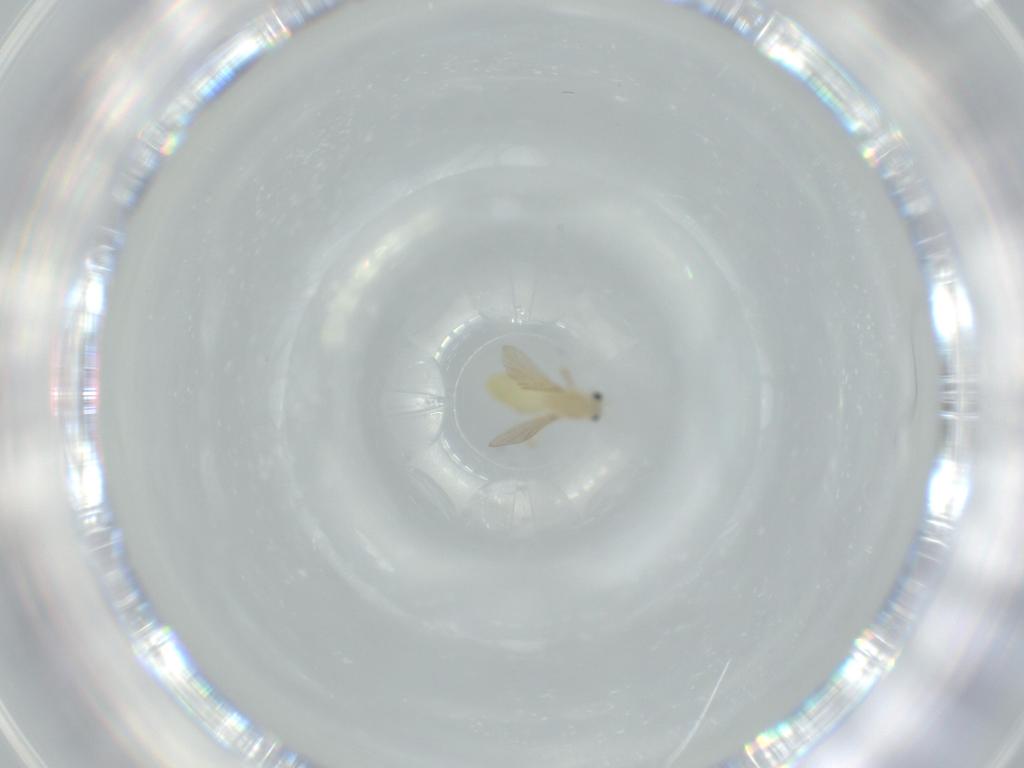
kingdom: Animalia
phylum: Arthropoda
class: Insecta
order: Diptera
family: Chironomidae
